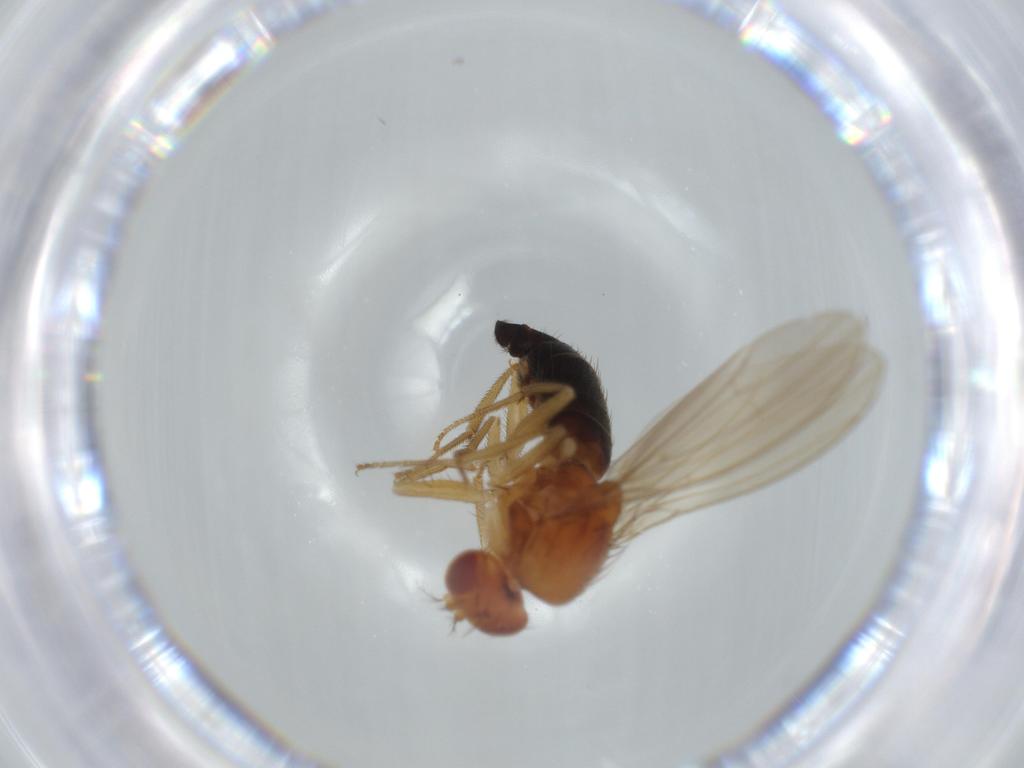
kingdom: Animalia
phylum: Arthropoda
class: Insecta
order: Diptera
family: Drosophilidae
